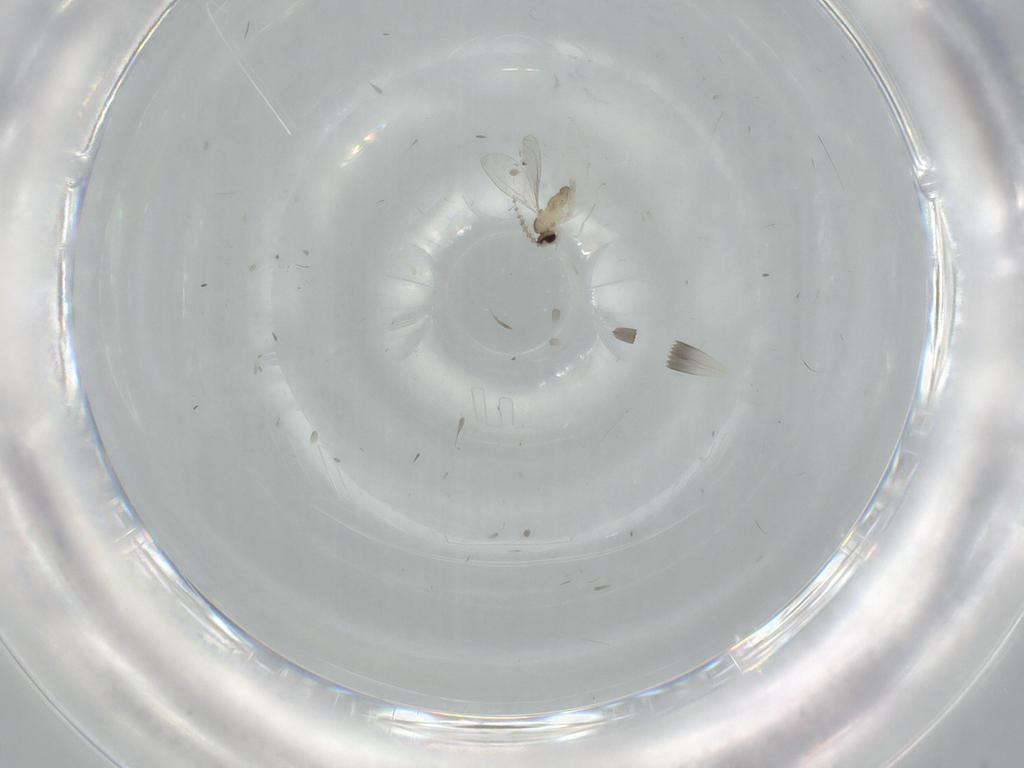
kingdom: Animalia
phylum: Arthropoda
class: Insecta
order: Diptera
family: Cecidomyiidae
